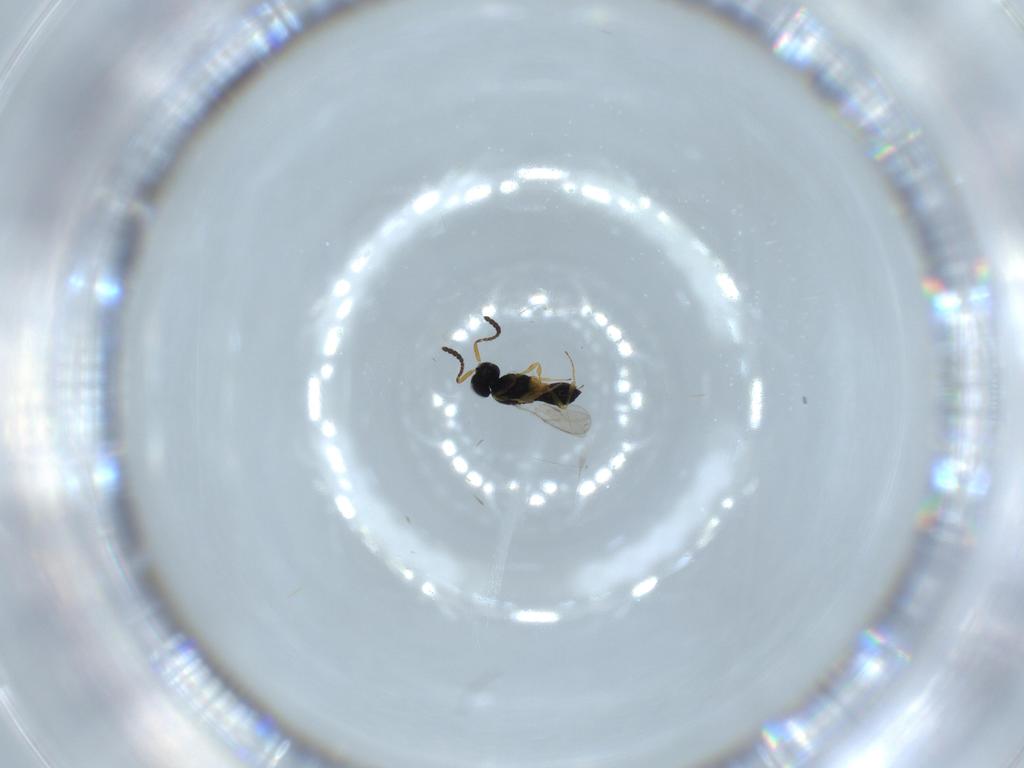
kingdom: Animalia
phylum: Arthropoda
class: Insecta
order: Hymenoptera
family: Scelionidae
